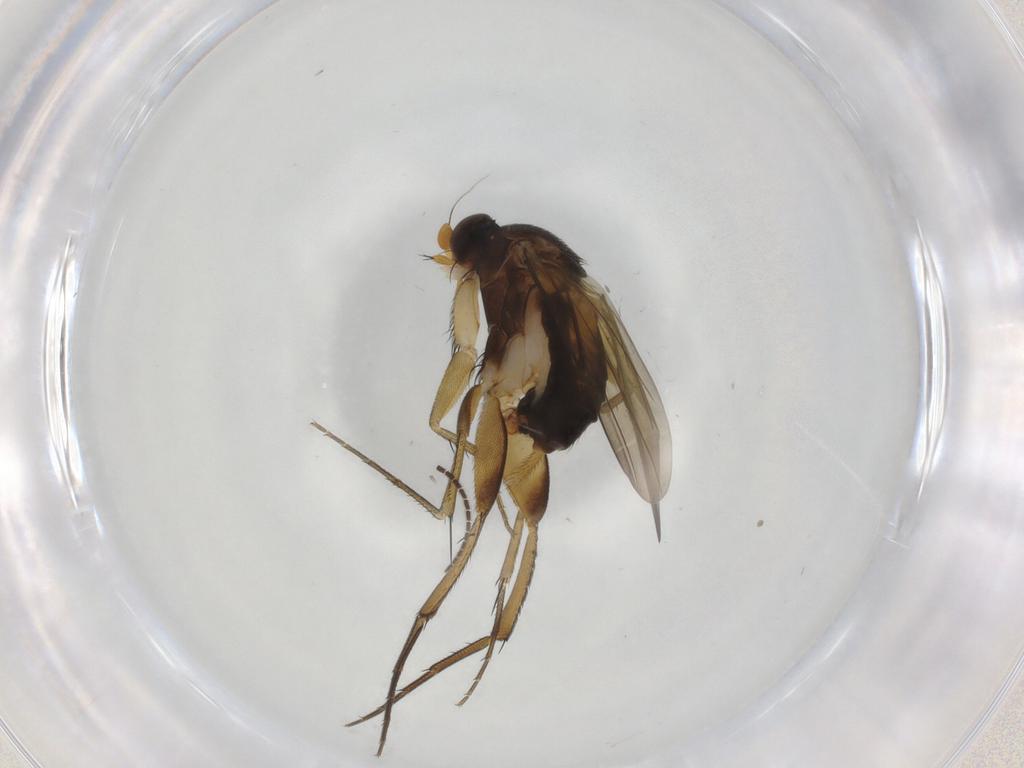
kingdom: Animalia
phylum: Arthropoda
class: Insecta
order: Diptera
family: Phoridae
